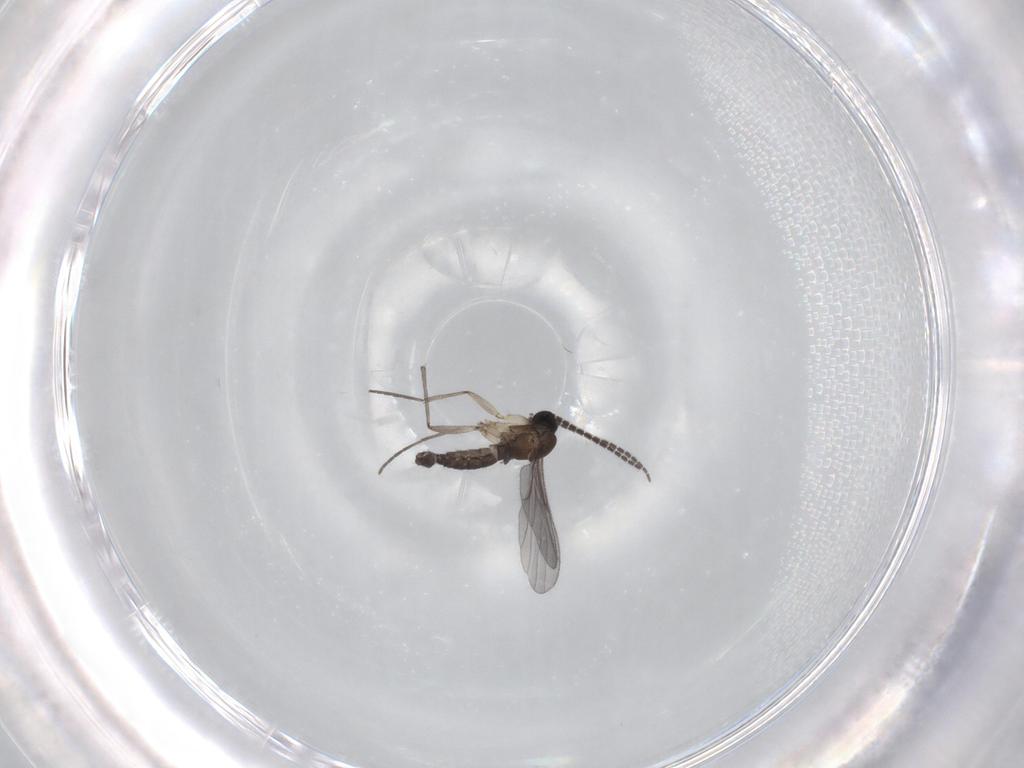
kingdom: Animalia
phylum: Arthropoda
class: Insecta
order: Diptera
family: Sciaridae
